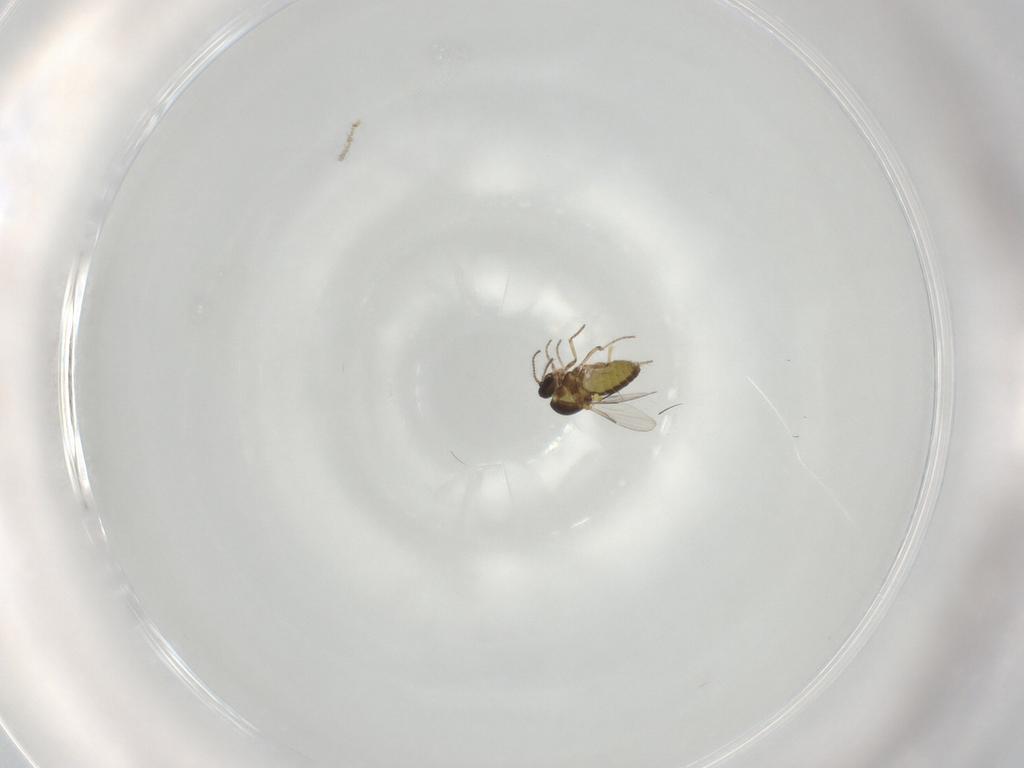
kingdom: Animalia
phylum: Arthropoda
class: Insecta
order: Diptera
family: Ceratopogonidae
